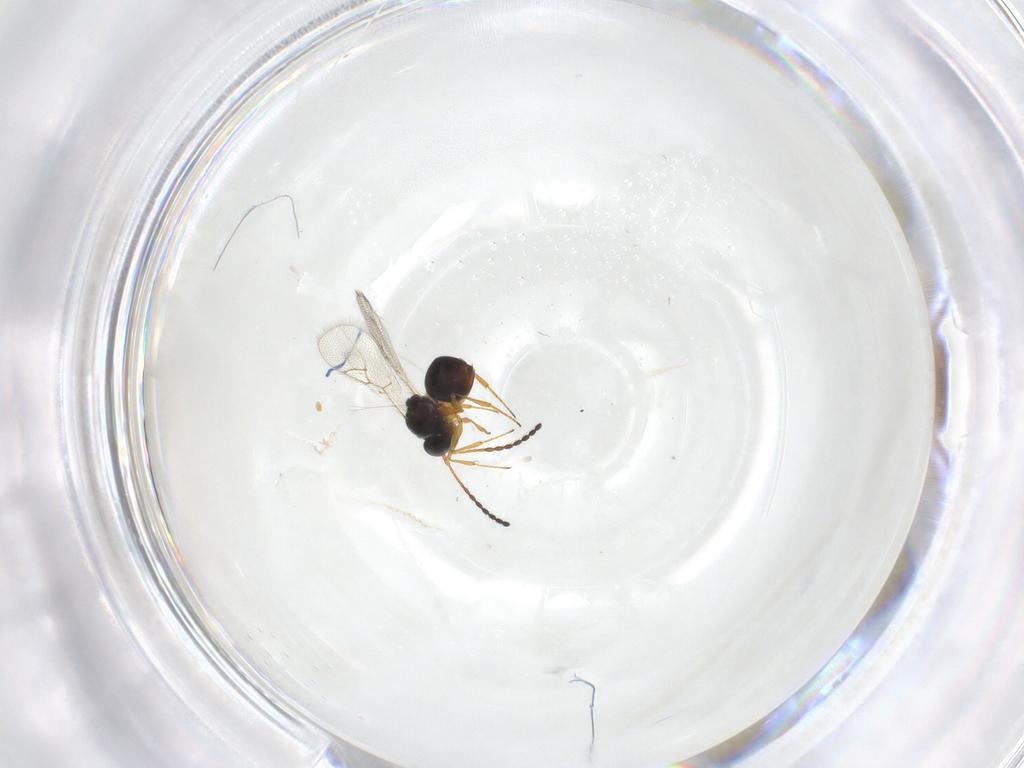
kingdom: Animalia
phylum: Arthropoda
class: Insecta
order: Hymenoptera
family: Figitidae
